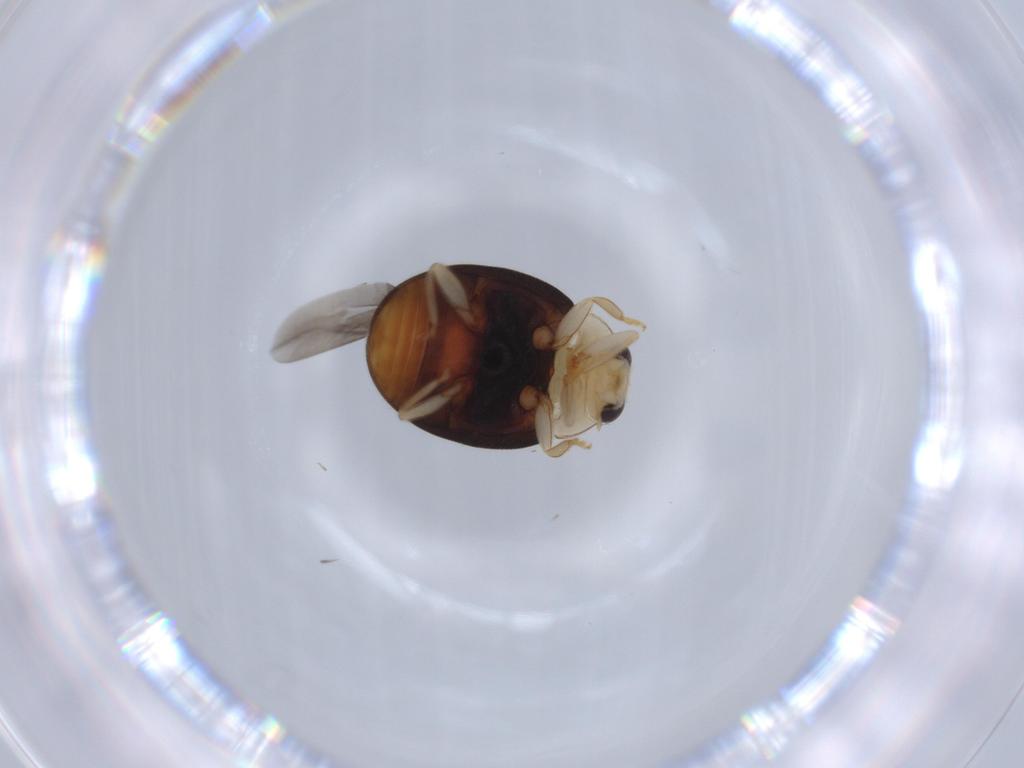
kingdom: Animalia
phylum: Arthropoda
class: Insecta
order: Coleoptera
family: Coccinellidae
